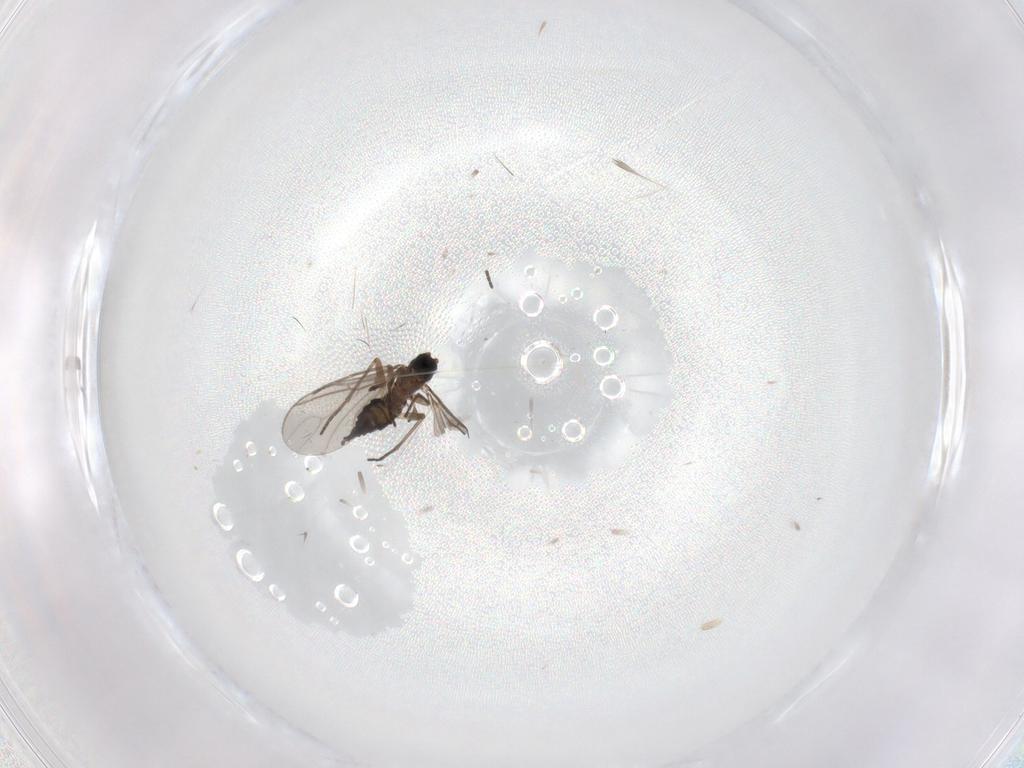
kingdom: Animalia
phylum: Arthropoda
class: Insecta
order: Diptera
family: Sciaridae
